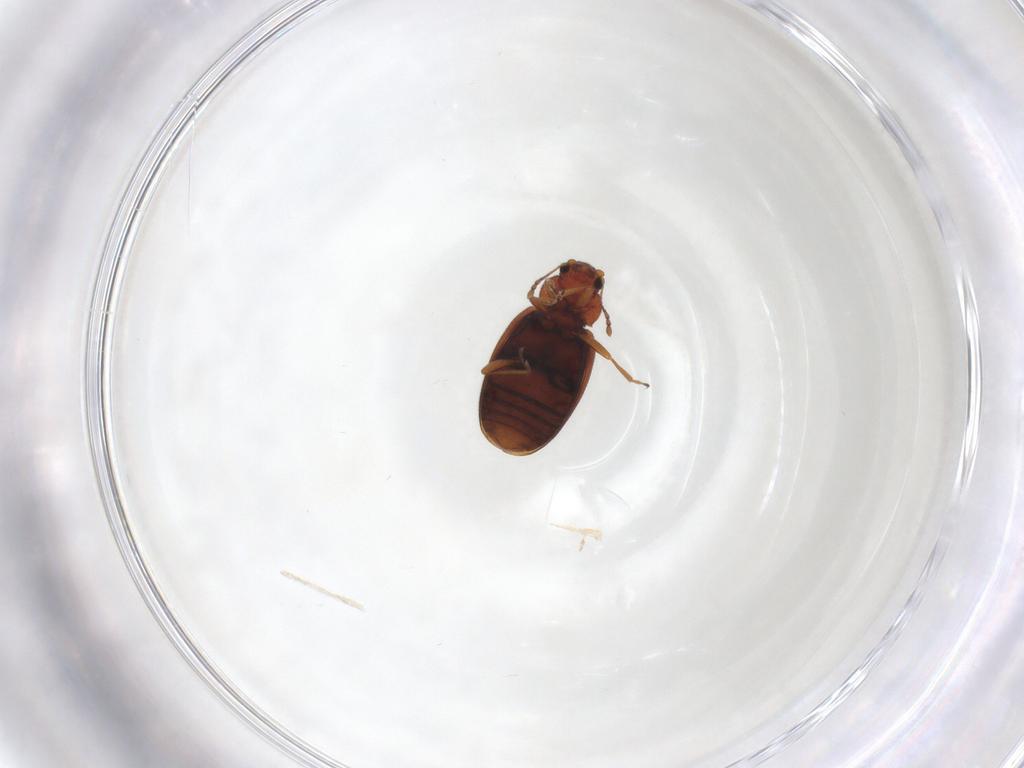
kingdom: Animalia
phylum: Arthropoda
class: Insecta
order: Coleoptera
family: Latridiidae
